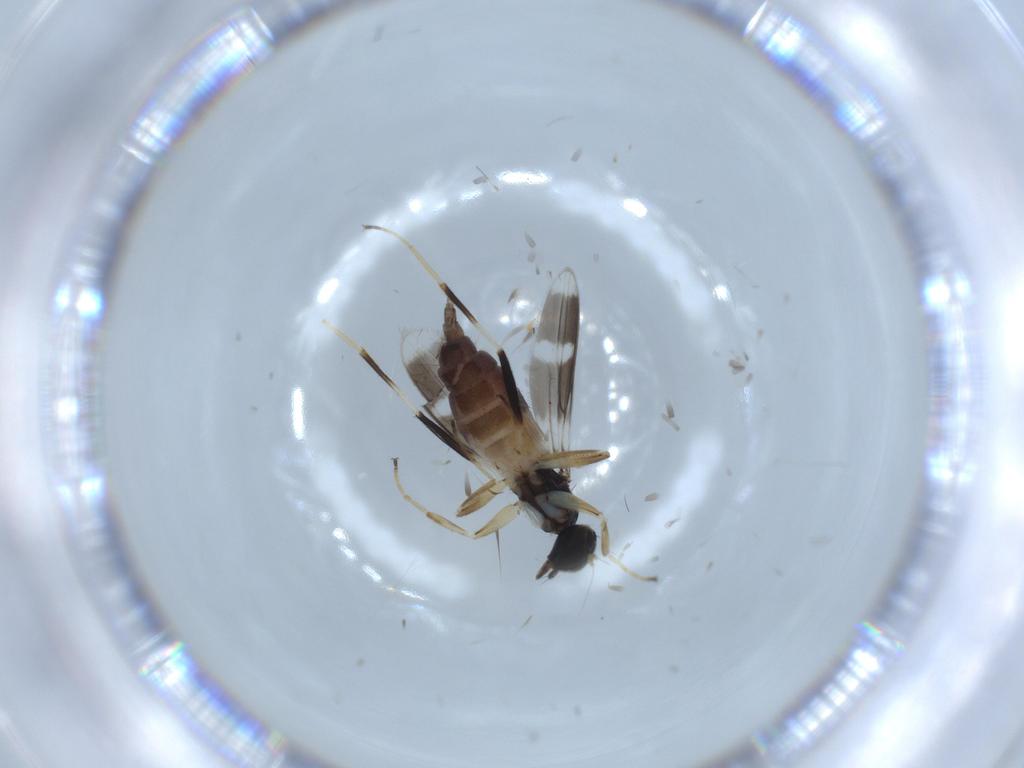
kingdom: Animalia
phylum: Arthropoda
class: Insecta
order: Diptera
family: Hybotidae
